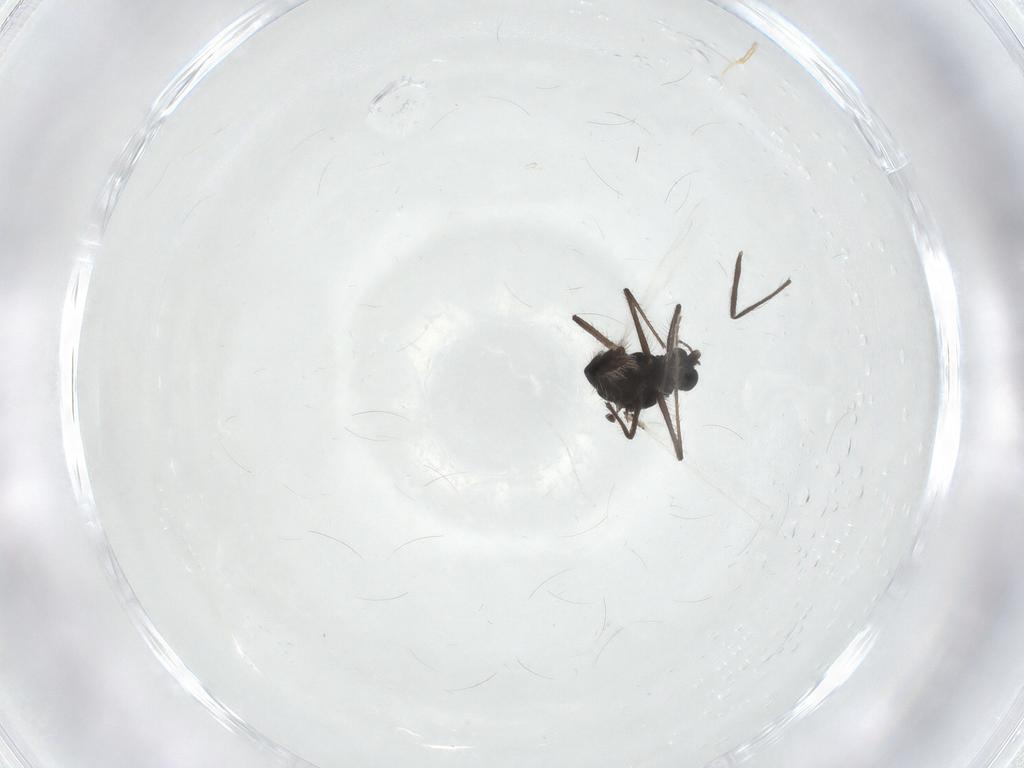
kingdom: Animalia
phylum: Arthropoda
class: Insecta
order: Diptera
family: Chironomidae
